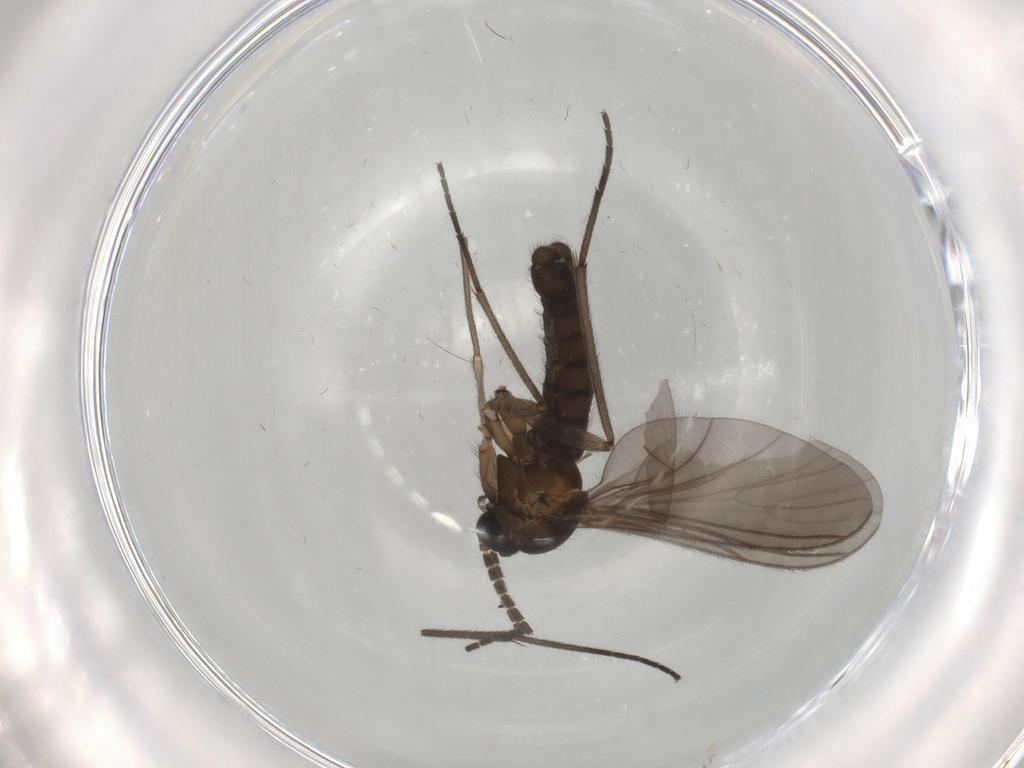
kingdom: Animalia
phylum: Arthropoda
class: Insecta
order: Diptera
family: Sciaridae
